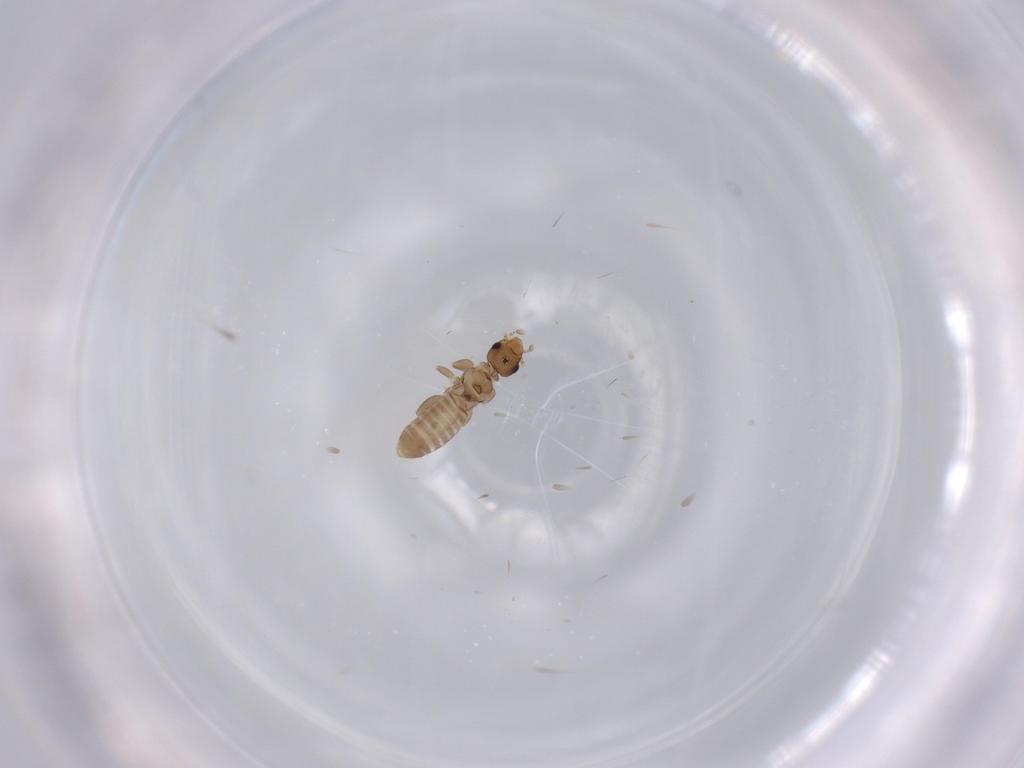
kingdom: Animalia
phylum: Arthropoda
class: Insecta
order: Psocodea
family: Liposcelididae
